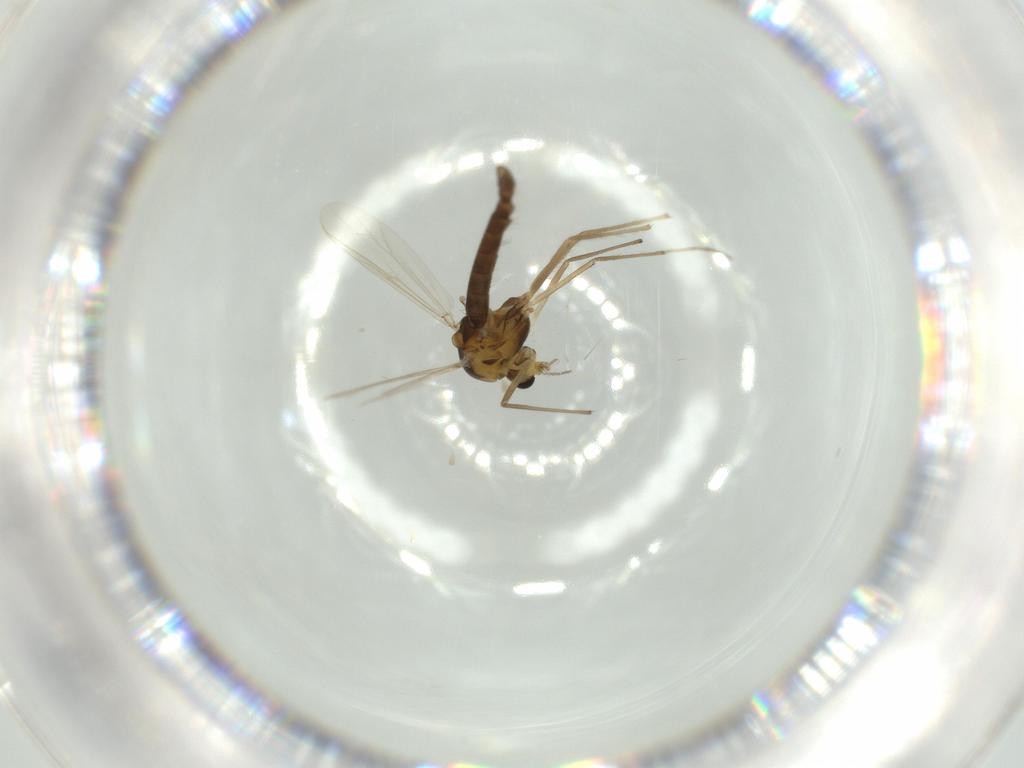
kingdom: Animalia
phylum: Arthropoda
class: Insecta
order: Diptera
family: Chironomidae
